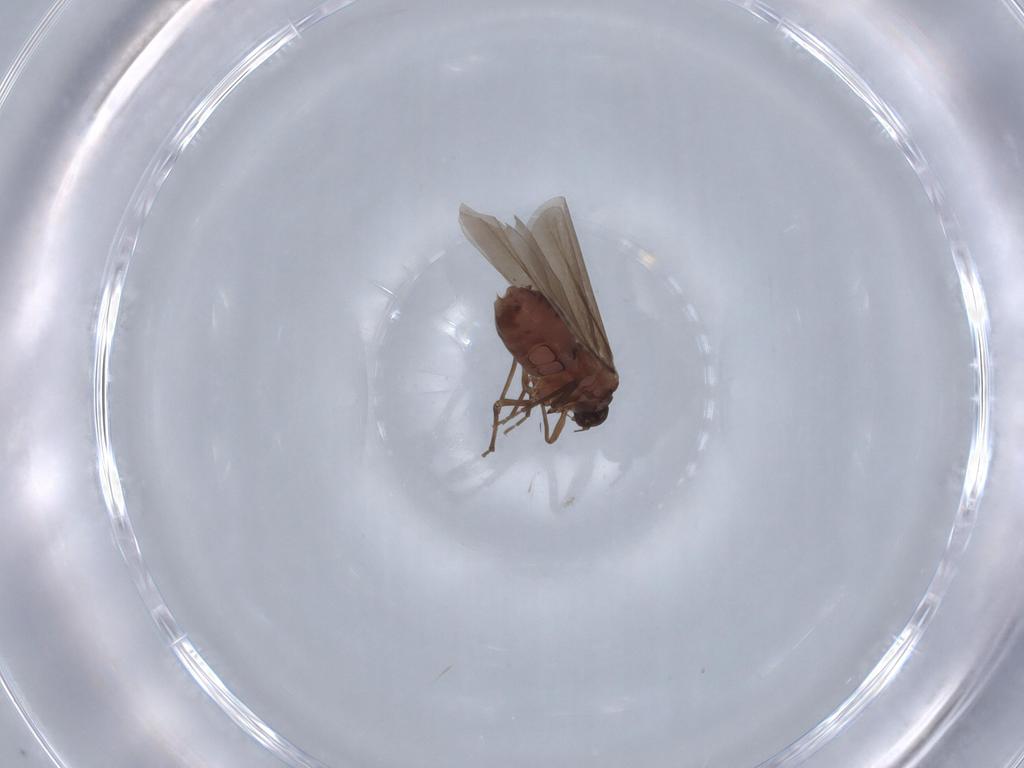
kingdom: Animalia
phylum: Arthropoda
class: Insecta
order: Hemiptera
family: Aleyrodidae
